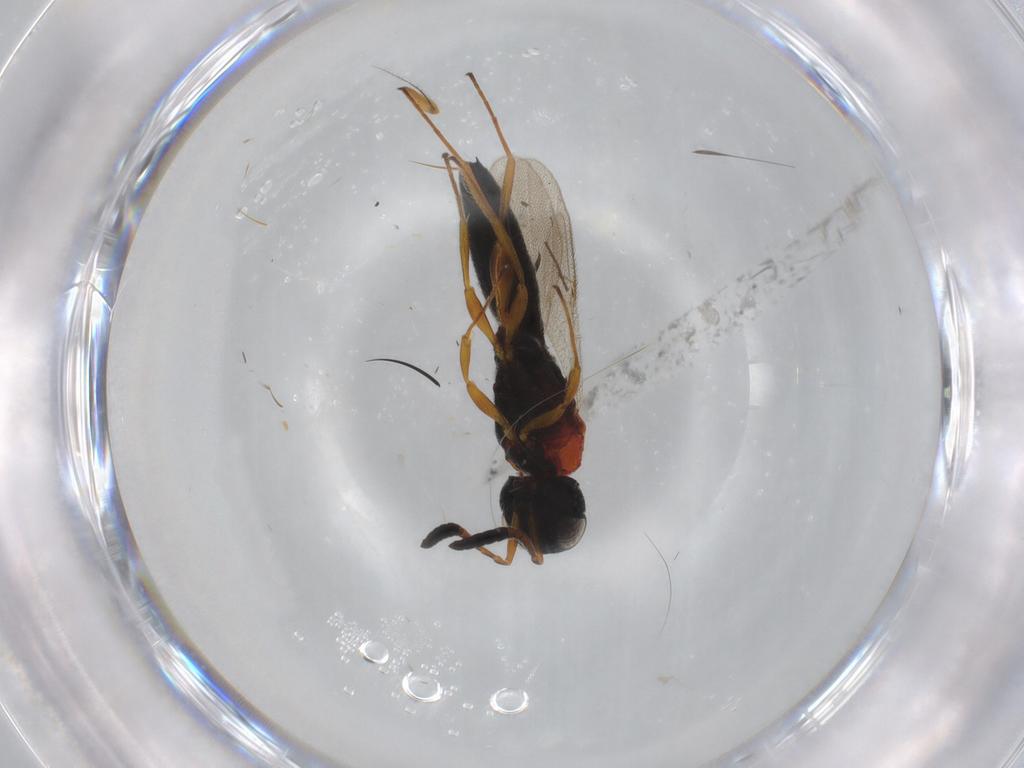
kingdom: Animalia
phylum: Arthropoda
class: Insecta
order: Hymenoptera
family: Scelionidae
